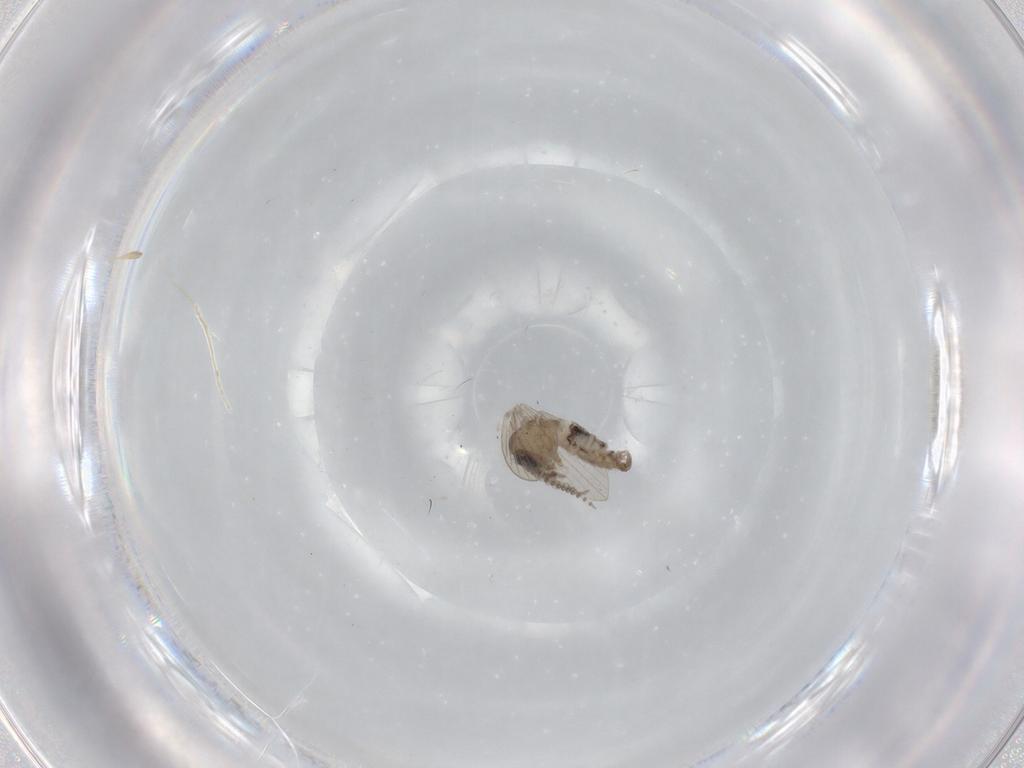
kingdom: Animalia
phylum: Arthropoda
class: Insecta
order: Diptera
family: Psychodidae
